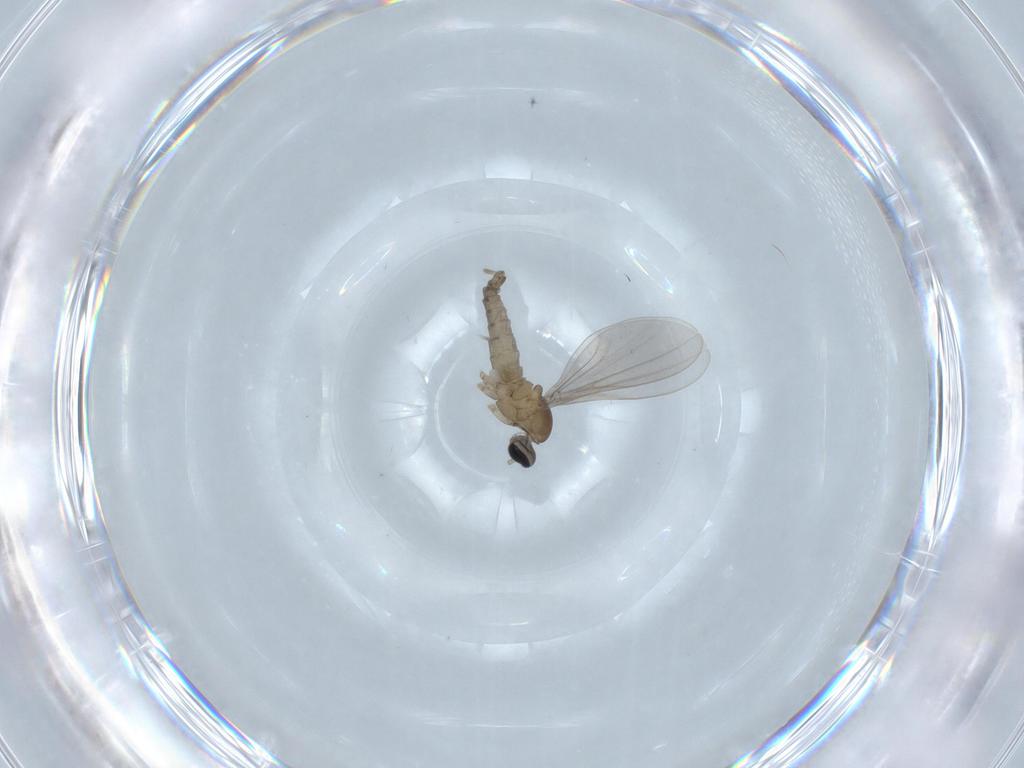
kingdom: Animalia
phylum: Arthropoda
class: Insecta
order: Diptera
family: Cecidomyiidae
